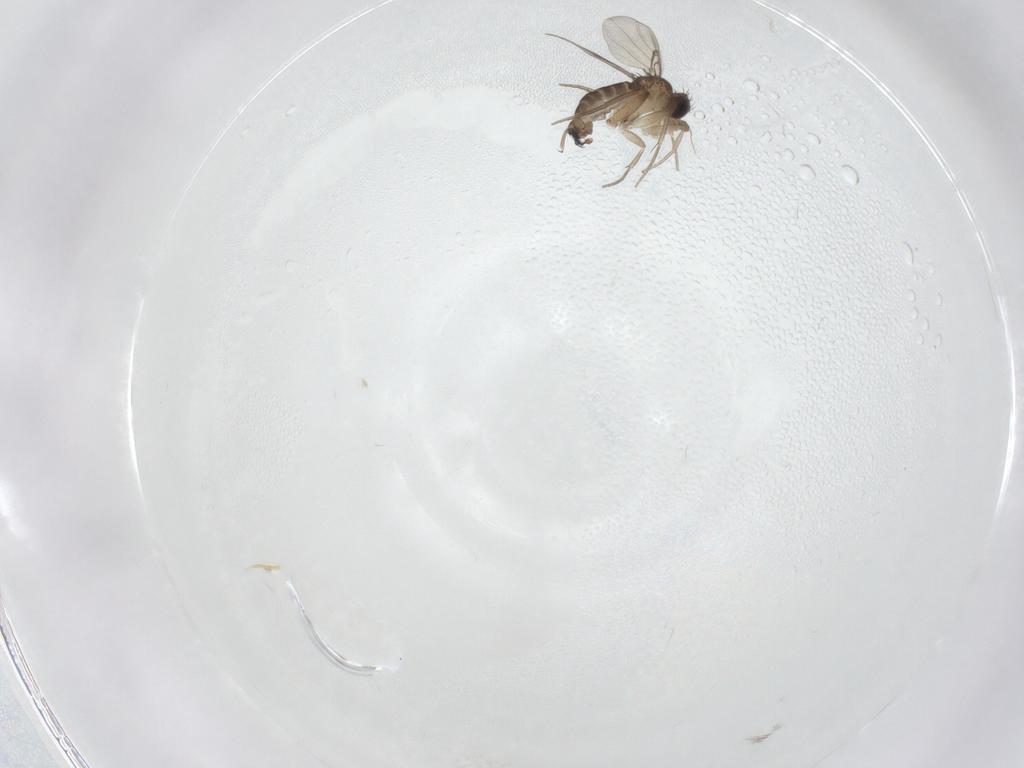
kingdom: Animalia
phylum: Arthropoda
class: Insecta
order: Diptera
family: Phoridae
